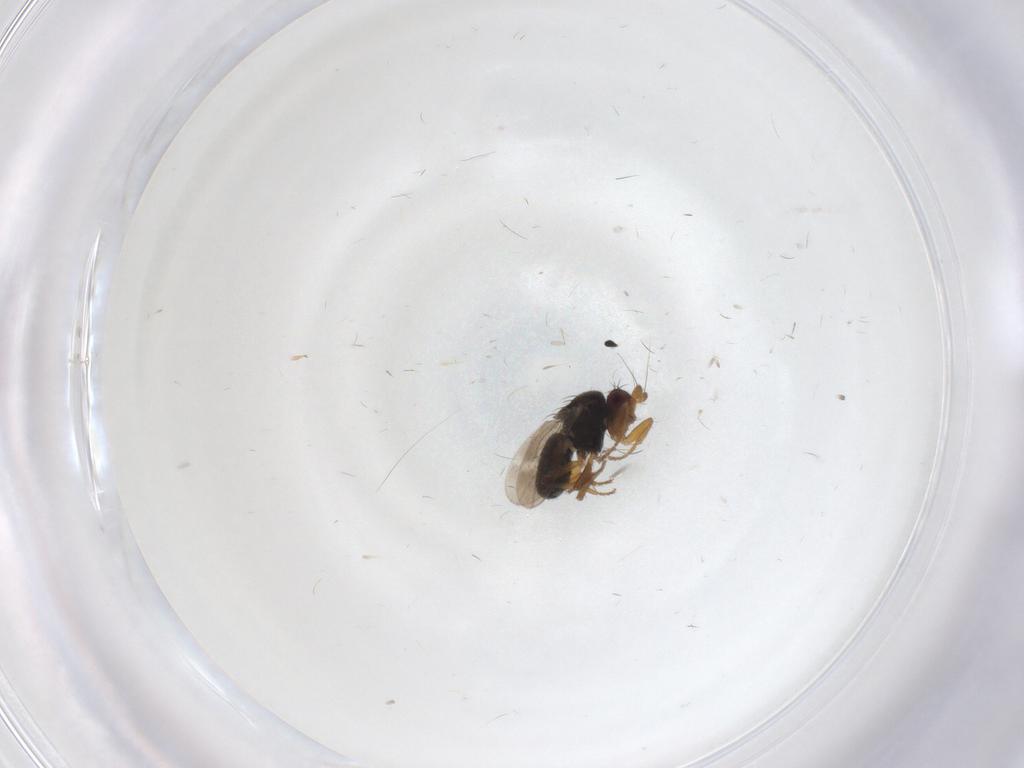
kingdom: Animalia
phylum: Arthropoda
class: Insecta
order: Diptera
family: Sphaeroceridae
